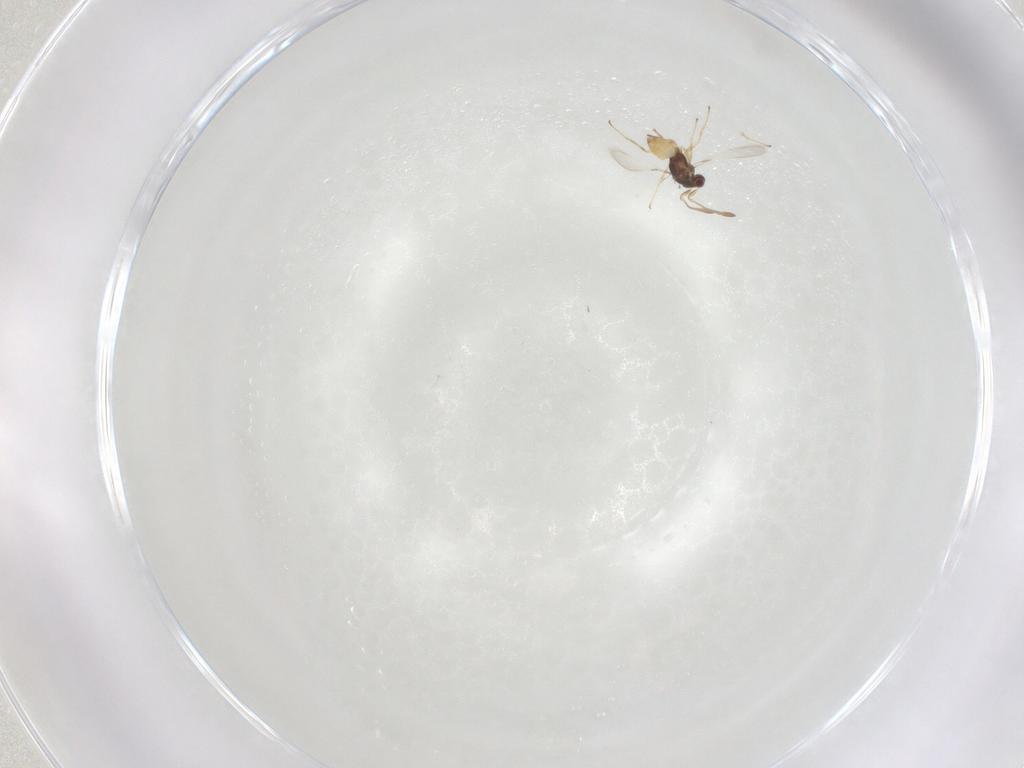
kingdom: Animalia
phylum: Arthropoda
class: Insecta
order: Hymenoptera
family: Mymaridae
